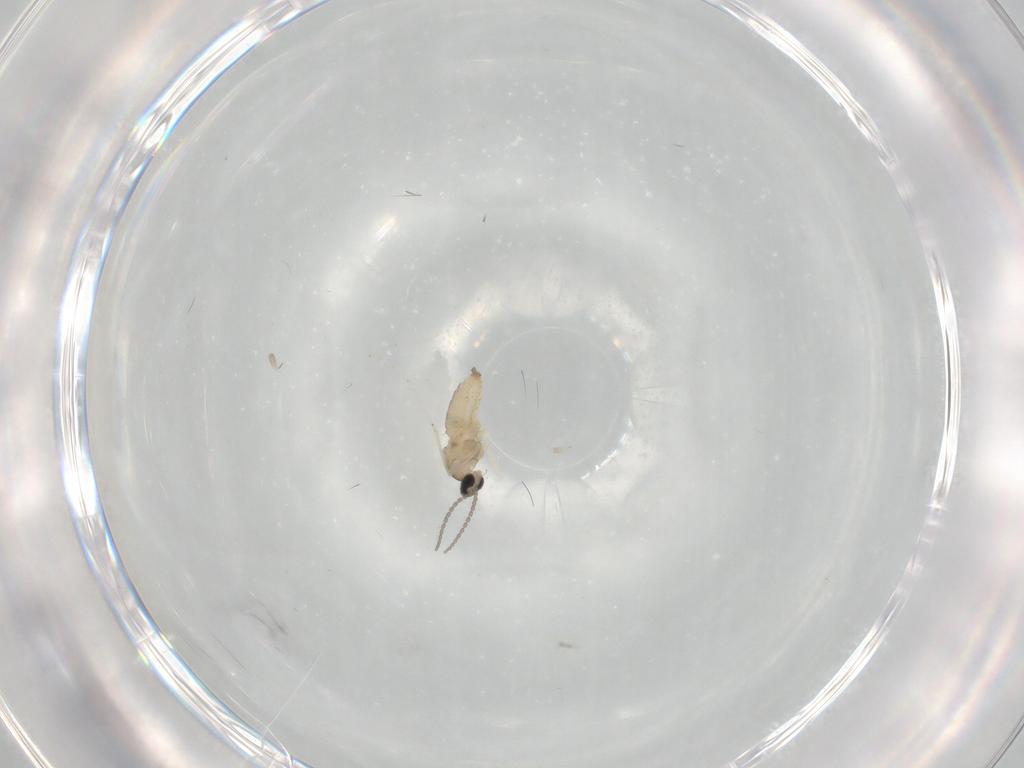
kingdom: Animalia
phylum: Arthropoda
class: Insecta
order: Diptera
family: Cecidomyiidae
